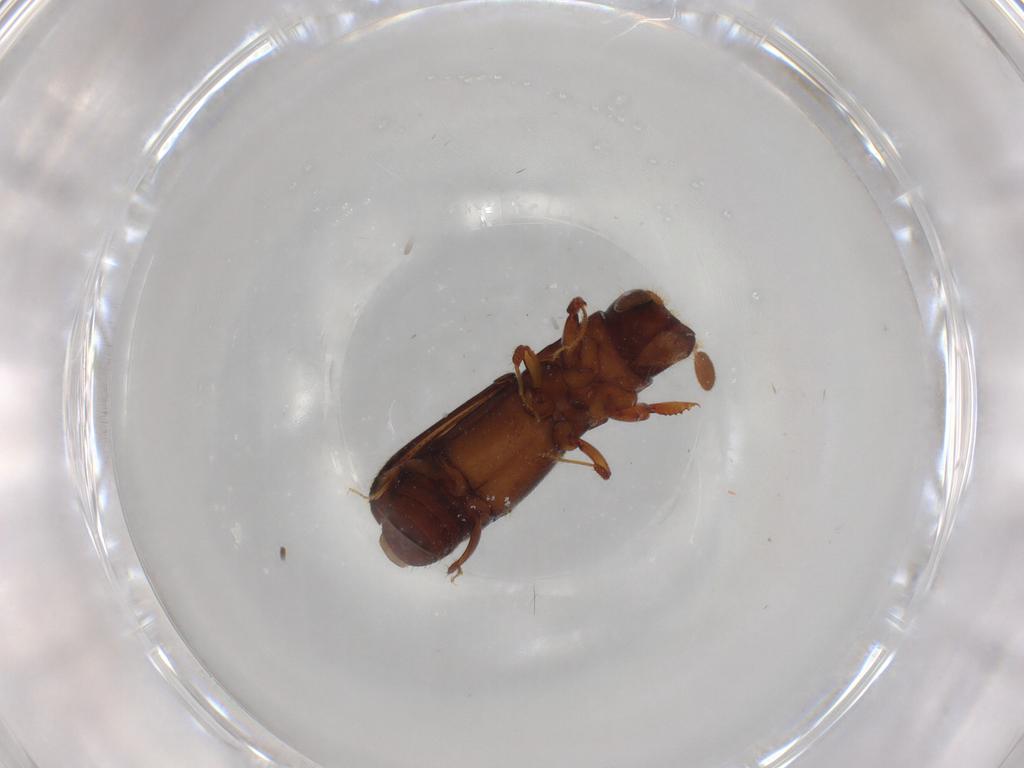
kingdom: Animalia
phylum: Arthropoda
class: Insecta
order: Coleoptera
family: Curculionidae
